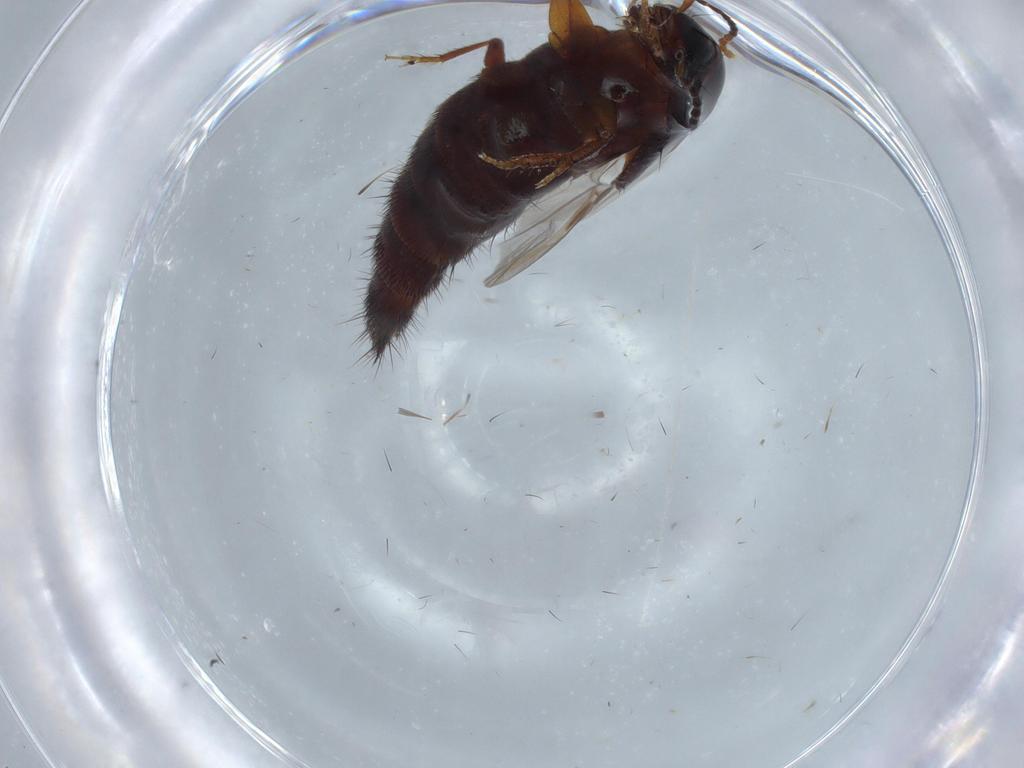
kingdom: Animalia
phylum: Arthropoda
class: Insecta
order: Coleoptera
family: Staphylinidae
